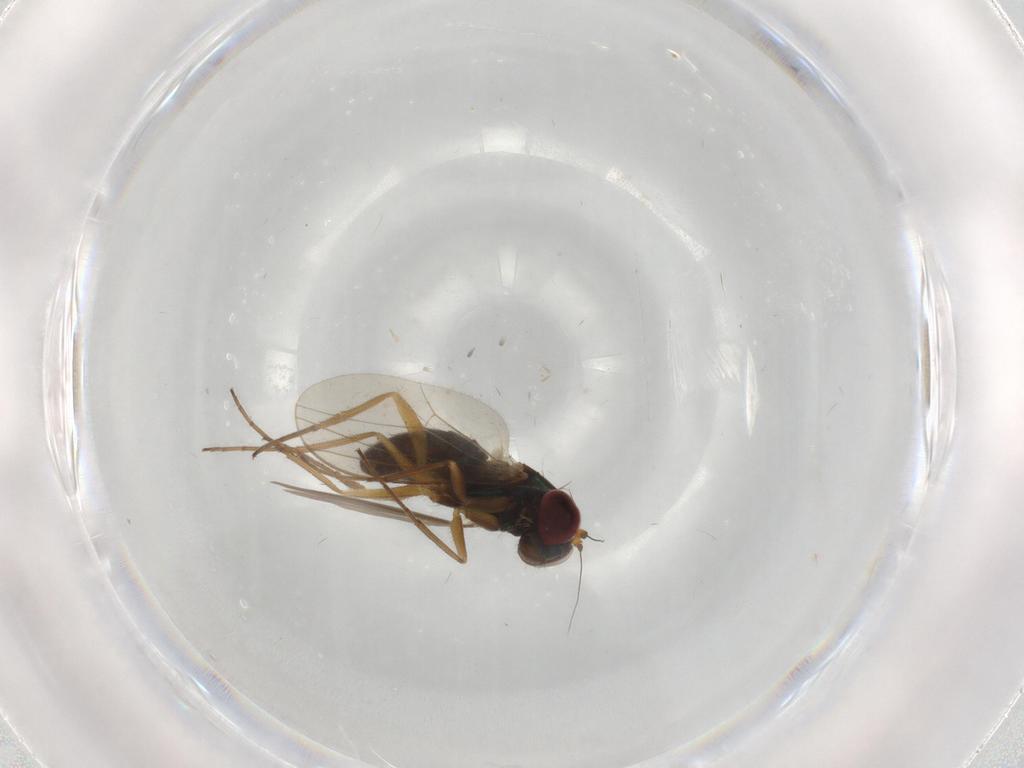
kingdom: Animalia
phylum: Arthropoda
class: Insecta
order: Diptera
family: Dolichopodidae
